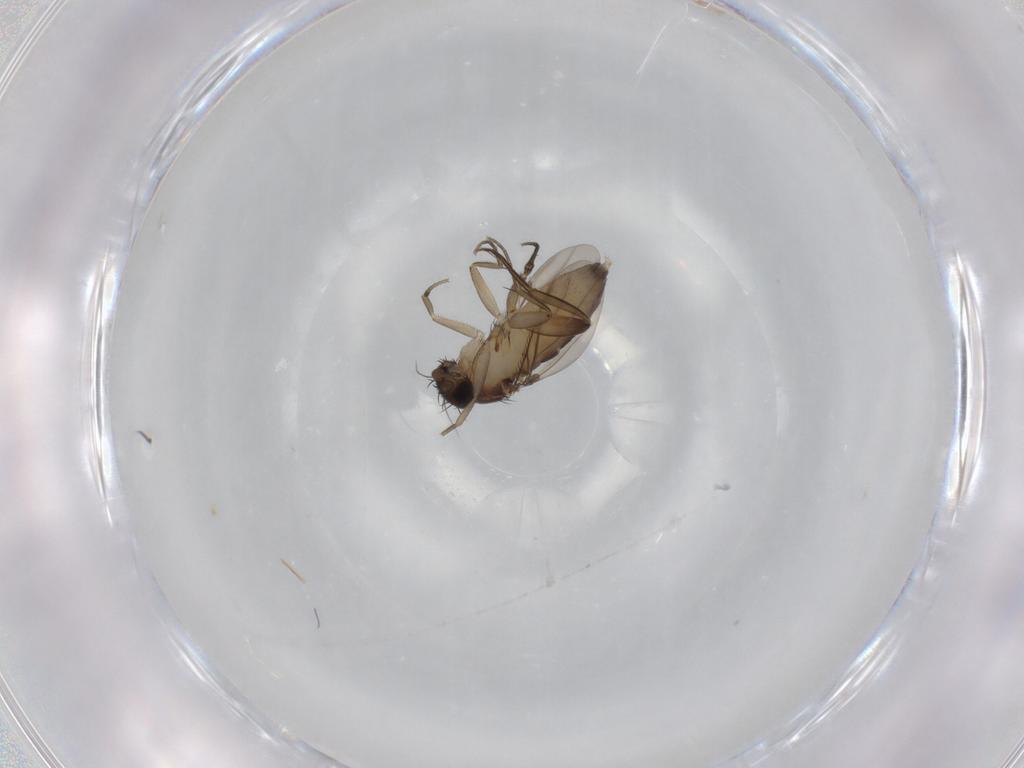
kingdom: Animalia
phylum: Arthropoda
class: Insecta
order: Diptera
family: Phoridae
